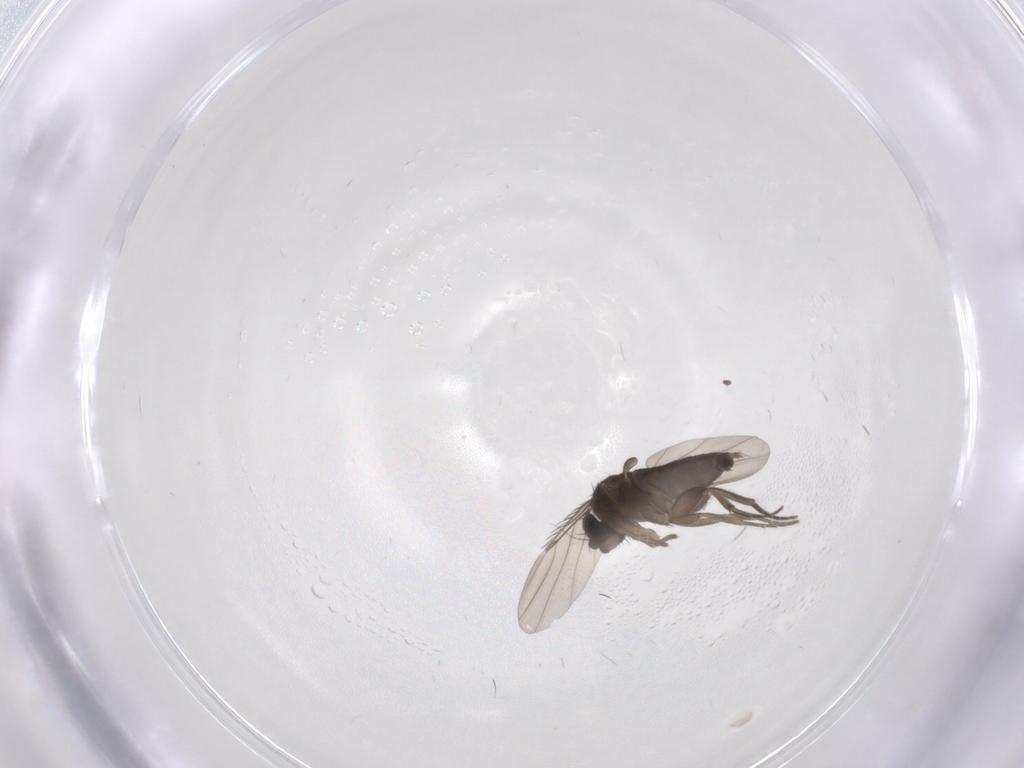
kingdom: Animalia
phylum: Arthropoda
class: Insecta
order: Diptera
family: Phoridae
